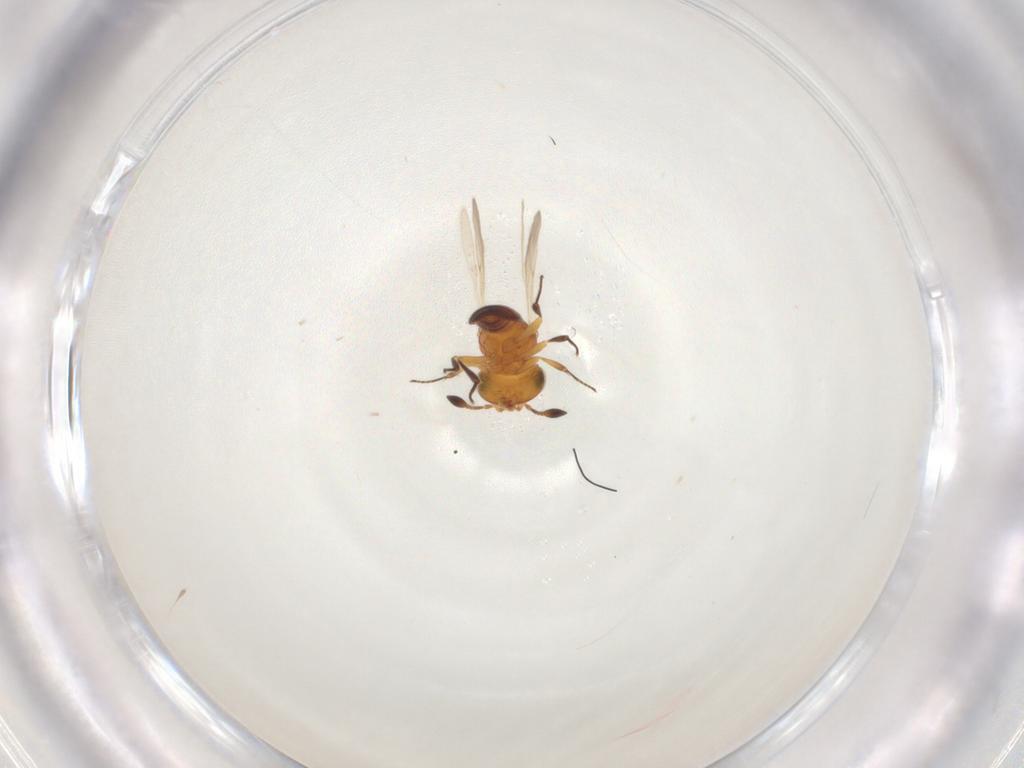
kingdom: Animalia
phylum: Arthropoda
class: Insecta
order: Hymenoptera
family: Scelionidae
